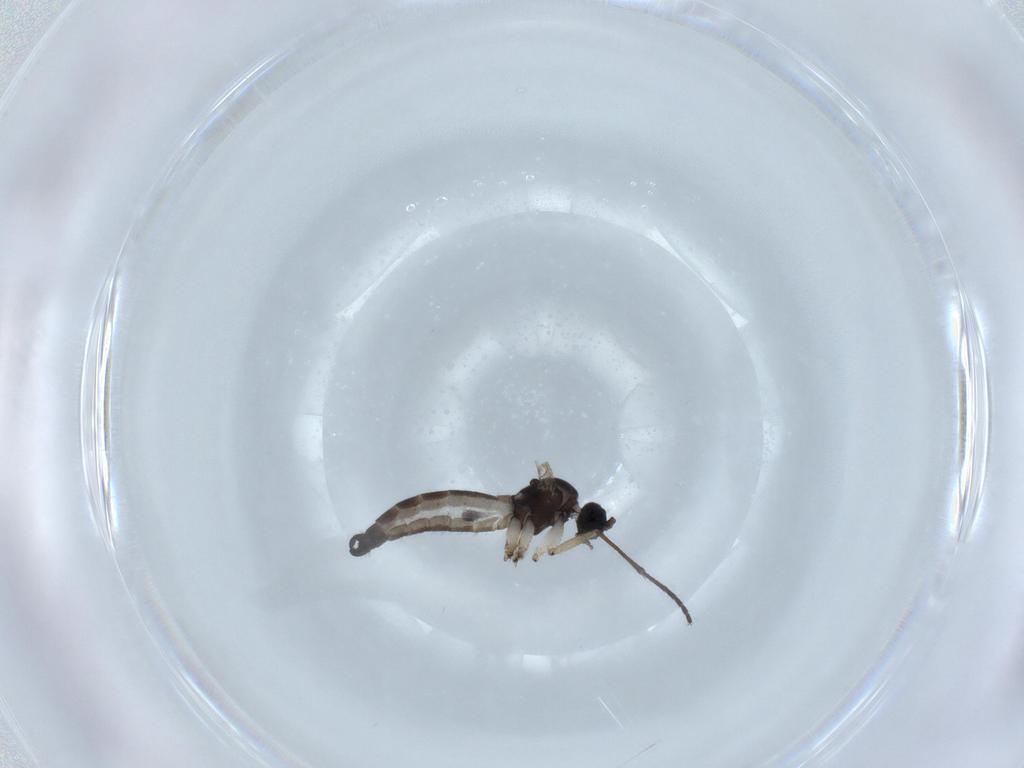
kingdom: Animalia
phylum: Arthropoda
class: Insecta
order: Diptera
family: Sciaridae
